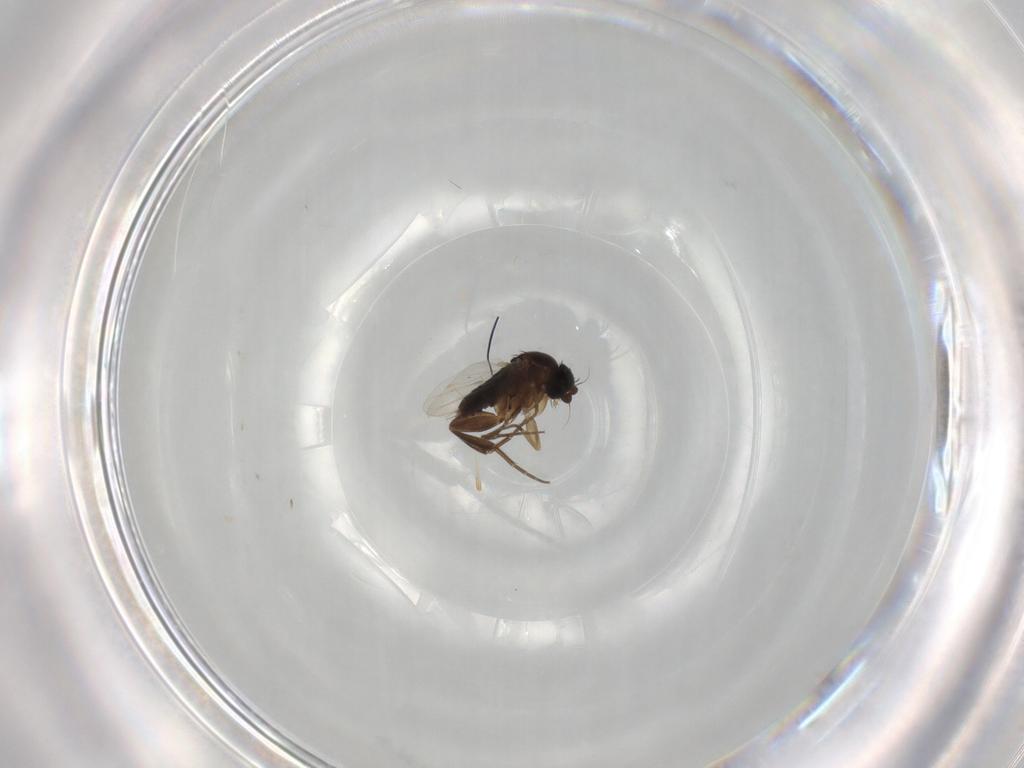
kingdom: Animalia
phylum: Arthropoda
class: Insecta
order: Diptera
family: Phoridae
